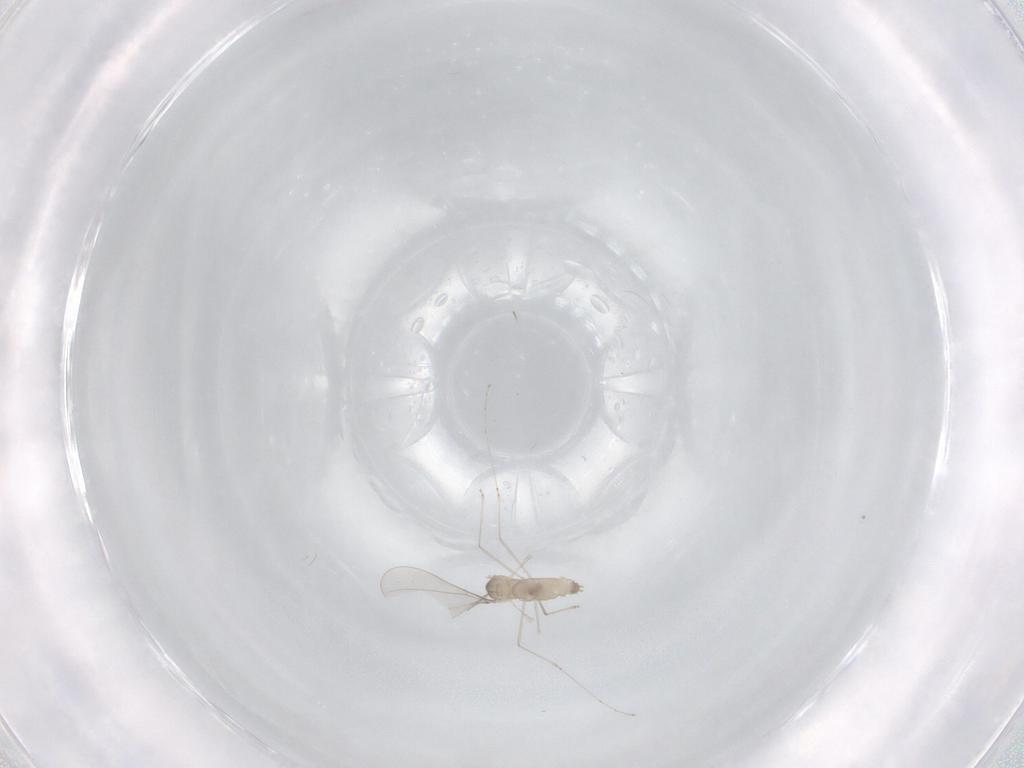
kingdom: Animalia
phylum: Arthropoda
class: Insecta
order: Diptera
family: Cecidomyiidae
